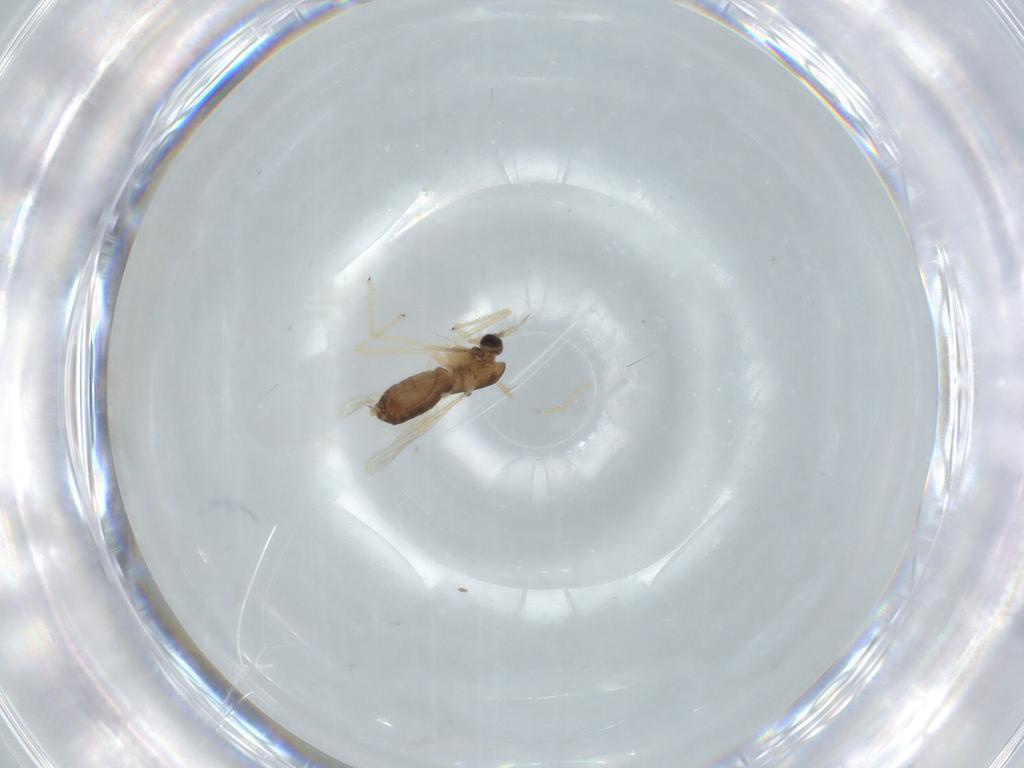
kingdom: Animalia
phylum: Arthropoda
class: Insecta
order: Diptera
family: Chironomidae
